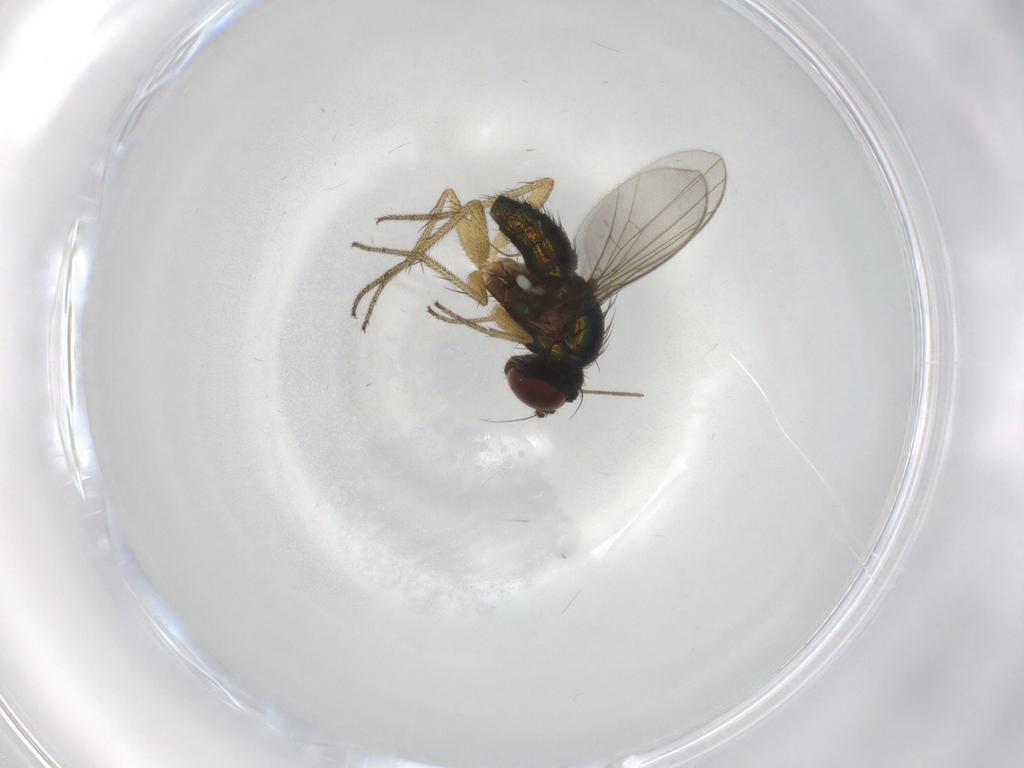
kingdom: Animalia
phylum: Arthropoda
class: Insecta
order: Diptera
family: Dolichopodidae
